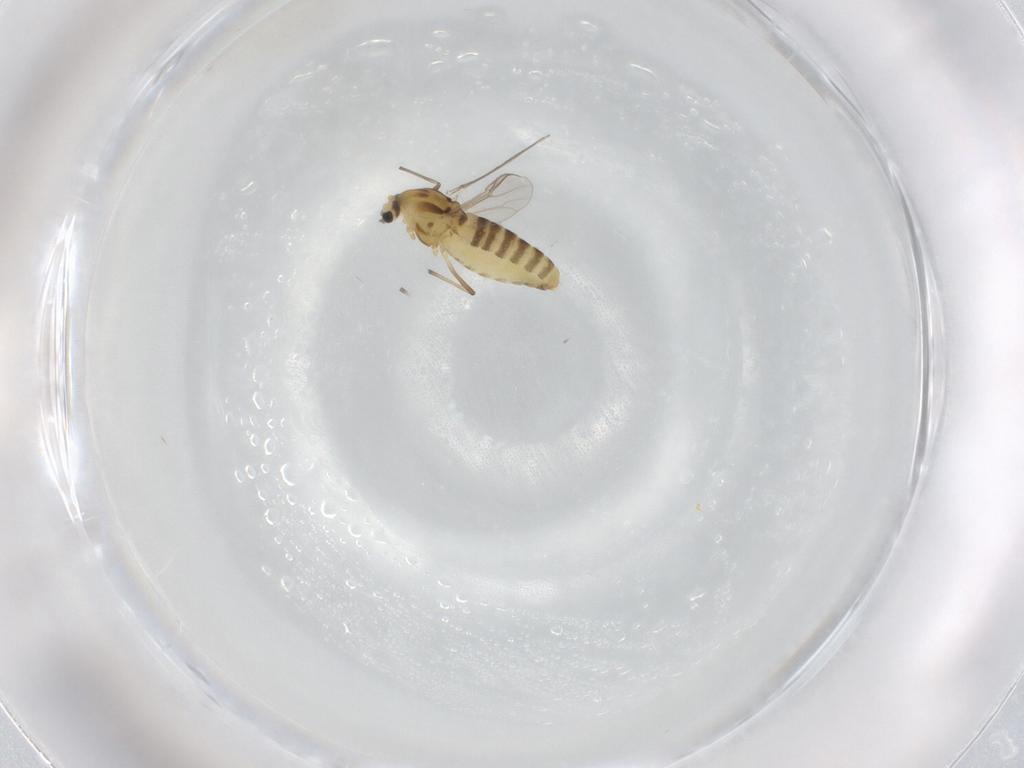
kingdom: Animalia
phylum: Arthropoda
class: Insecta
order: Diptera
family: Chironomidae
